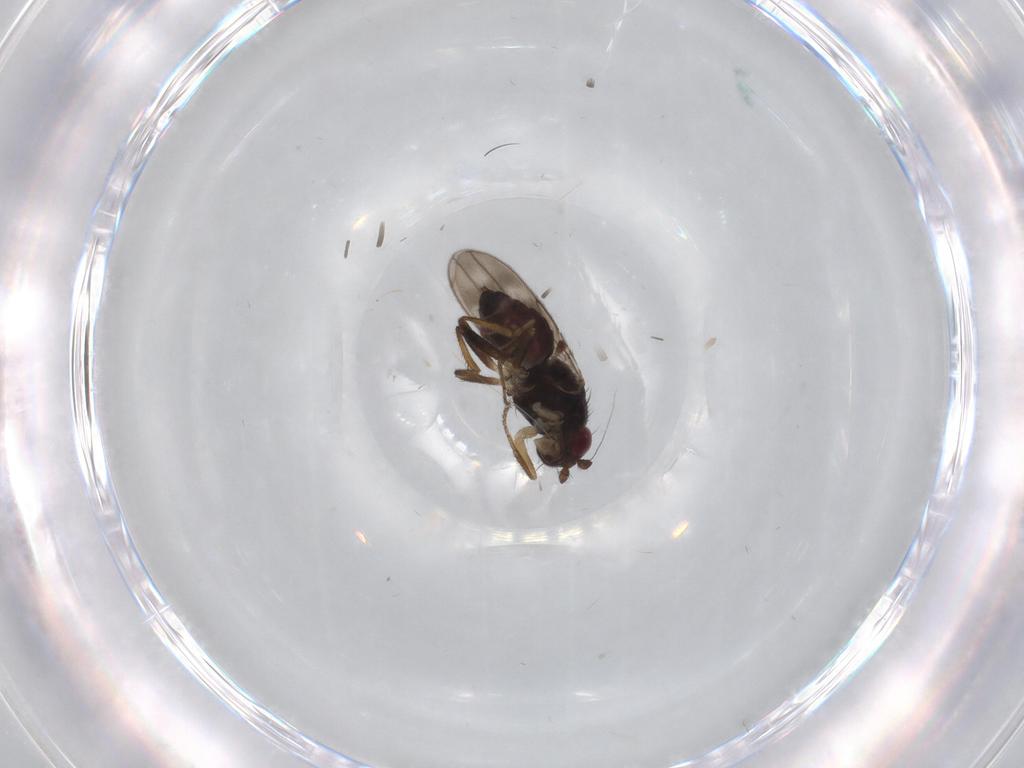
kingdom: Animalia
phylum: Arthropoda
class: Insecta
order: Diptera
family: Sphaeroceridae
